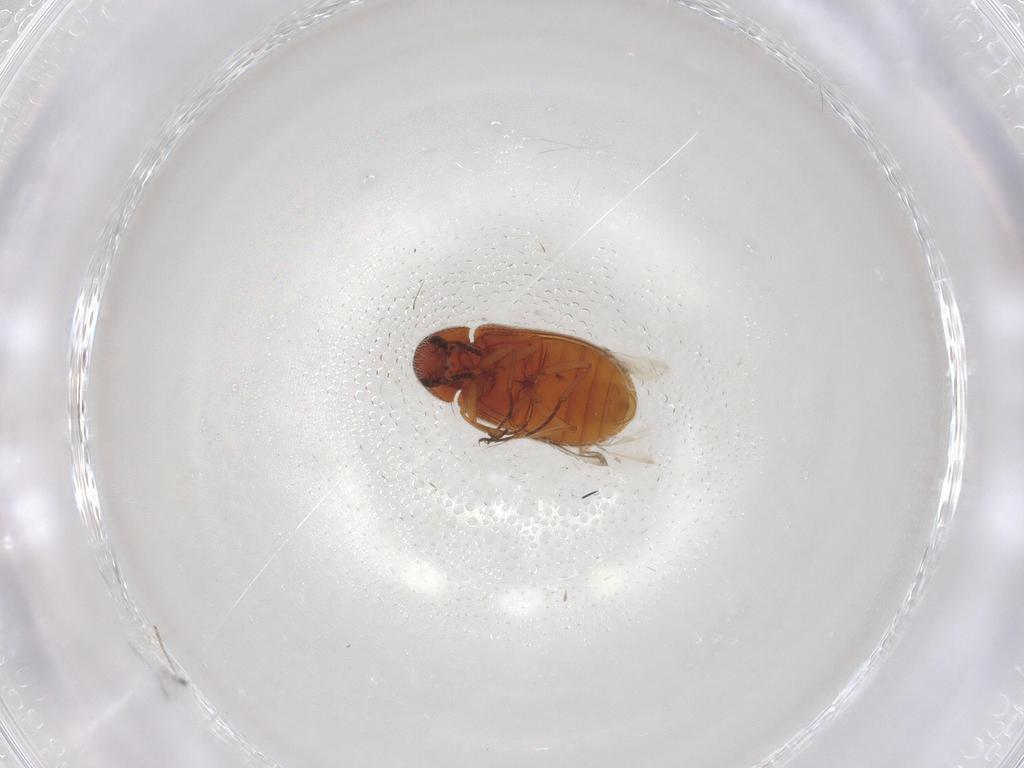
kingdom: Animalia
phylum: Arthropoda
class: Insecta
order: Coleoptera
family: Rhadalidae
